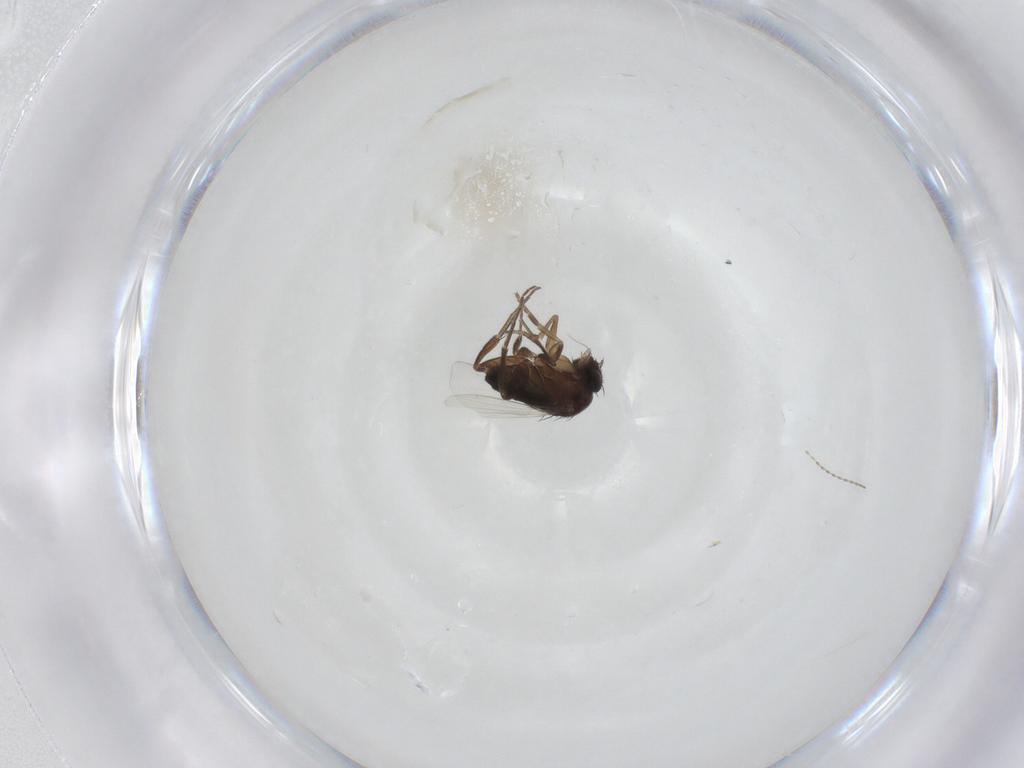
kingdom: Animalia
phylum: Arthropoda
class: Insecta
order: Diptera
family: Phoridae
